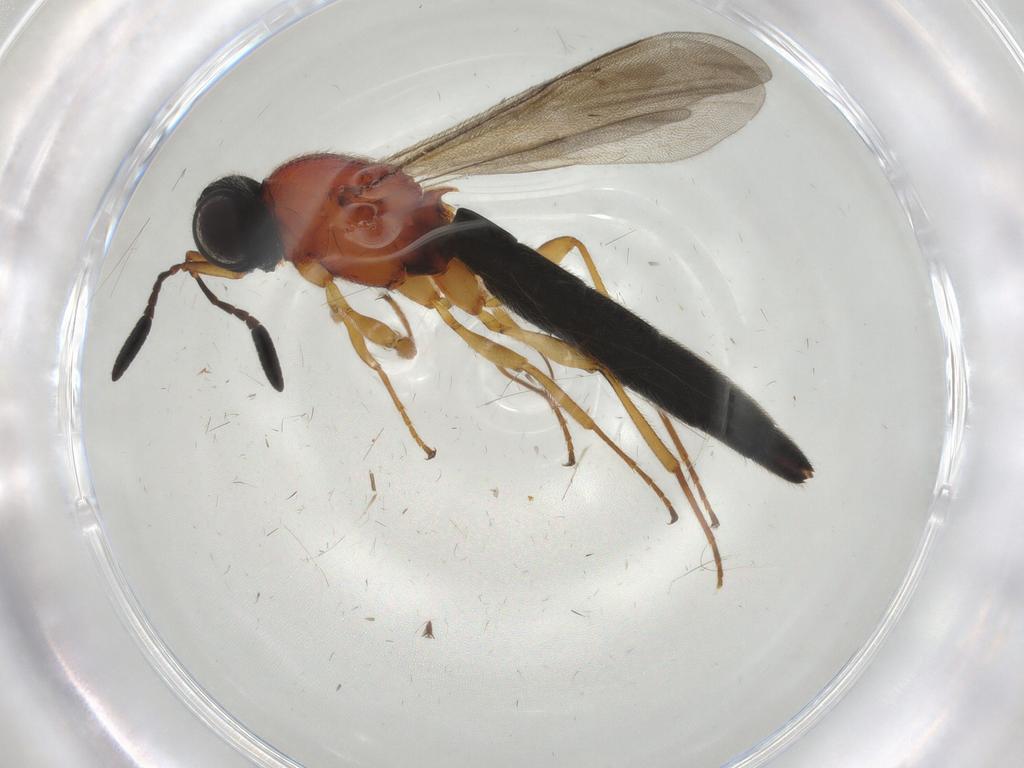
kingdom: Animalia
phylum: Arthropoda
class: Insecta
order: Hymenoptera
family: Scelionidae
